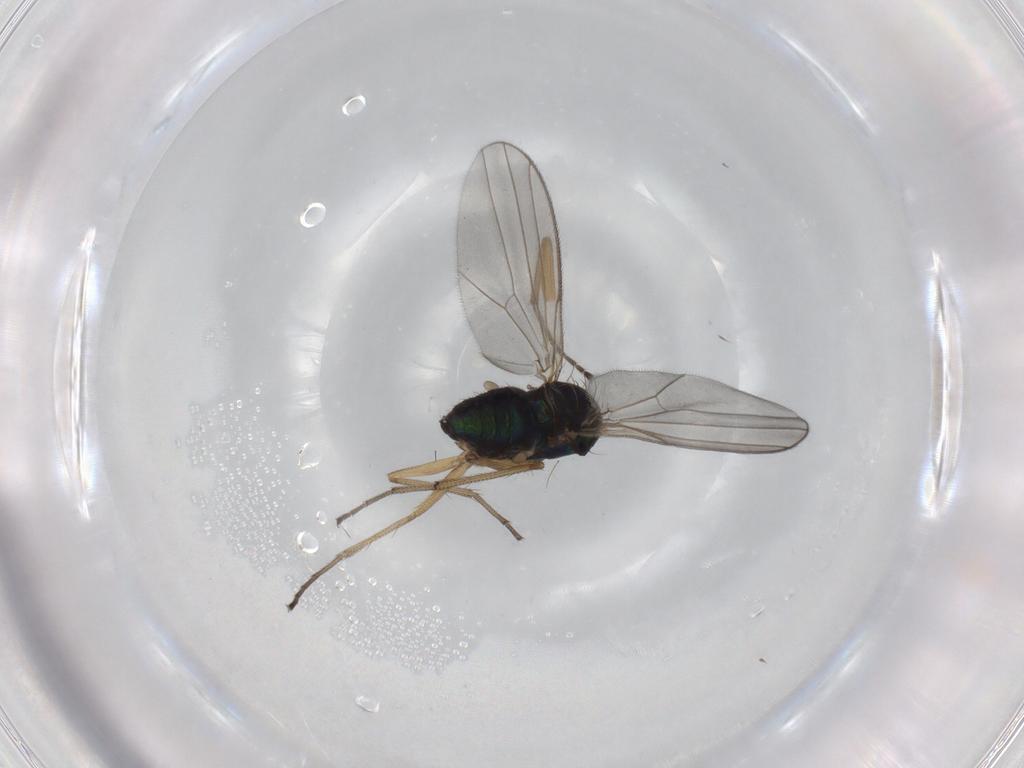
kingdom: Animalia
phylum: Arthropoda
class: Insecta
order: Diptera
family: Dolichopodidae
